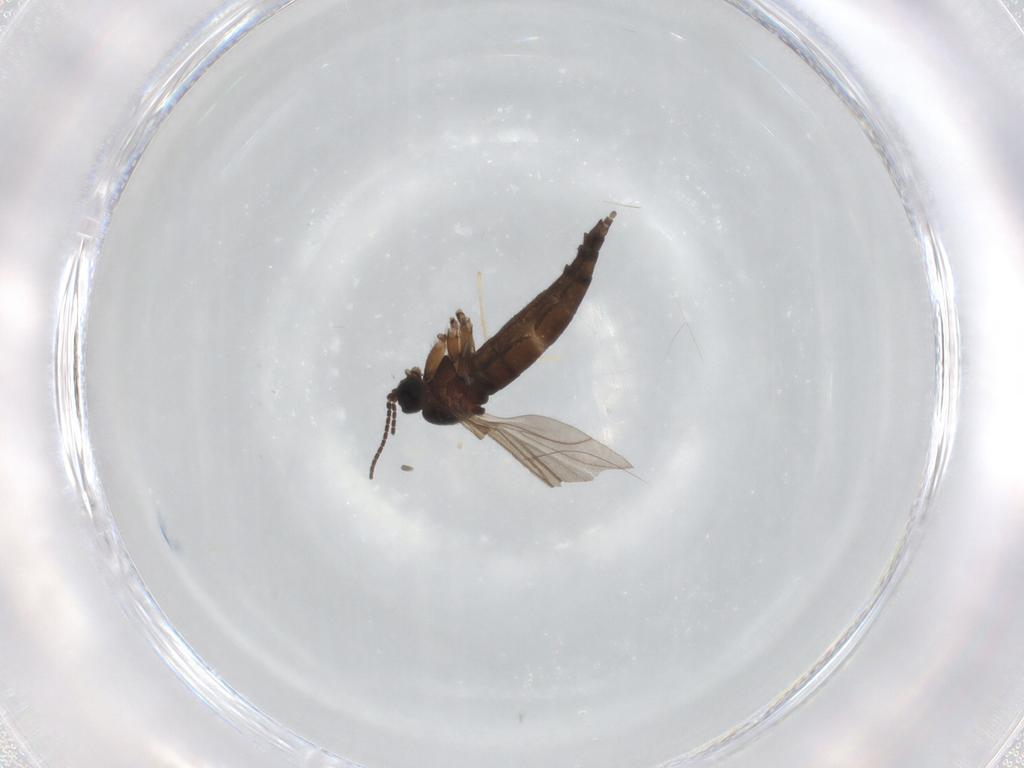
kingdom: Animalia
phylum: Arthropoda
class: Insecta
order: Diptera
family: Sciaridae
